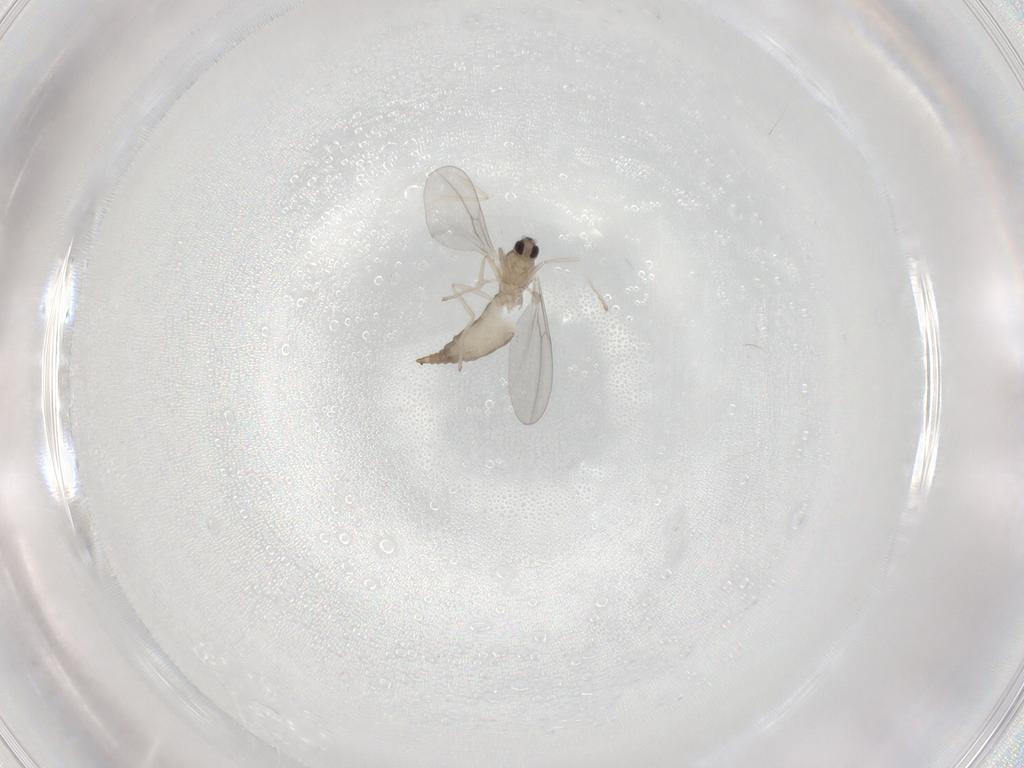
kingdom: Animalia
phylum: Arthropoda
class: Insecta
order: Diptera
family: Cecidomyiidae
